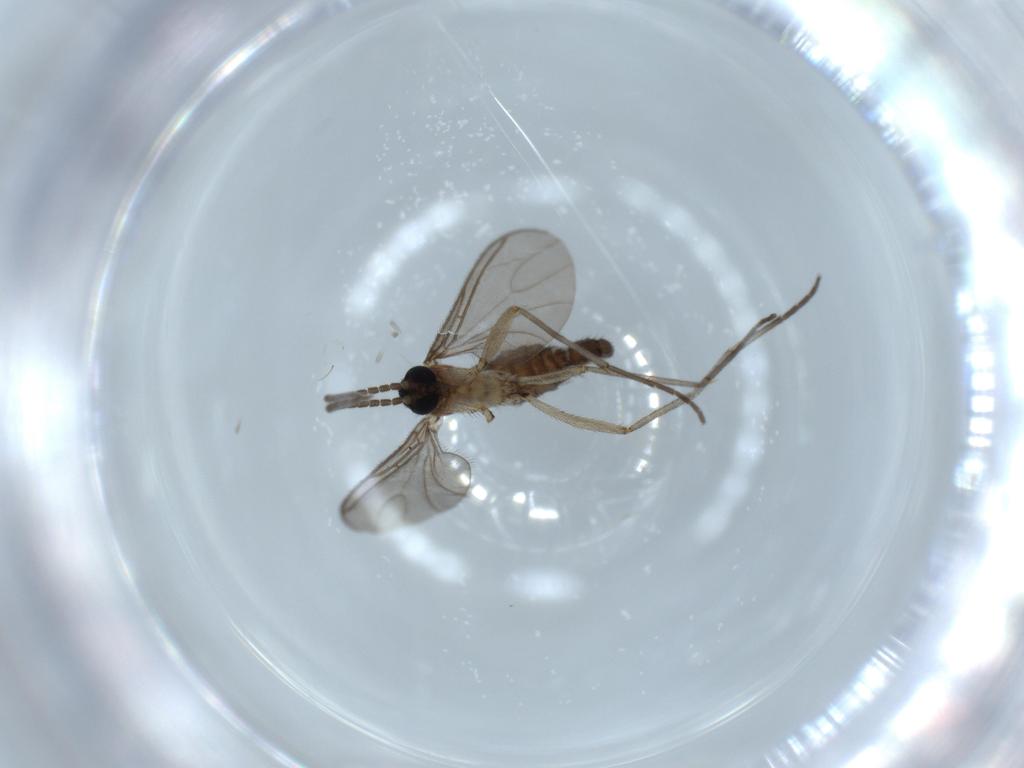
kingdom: Animalia
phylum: Arthropoda
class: Insecta
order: Diptera
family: Sciaridae
